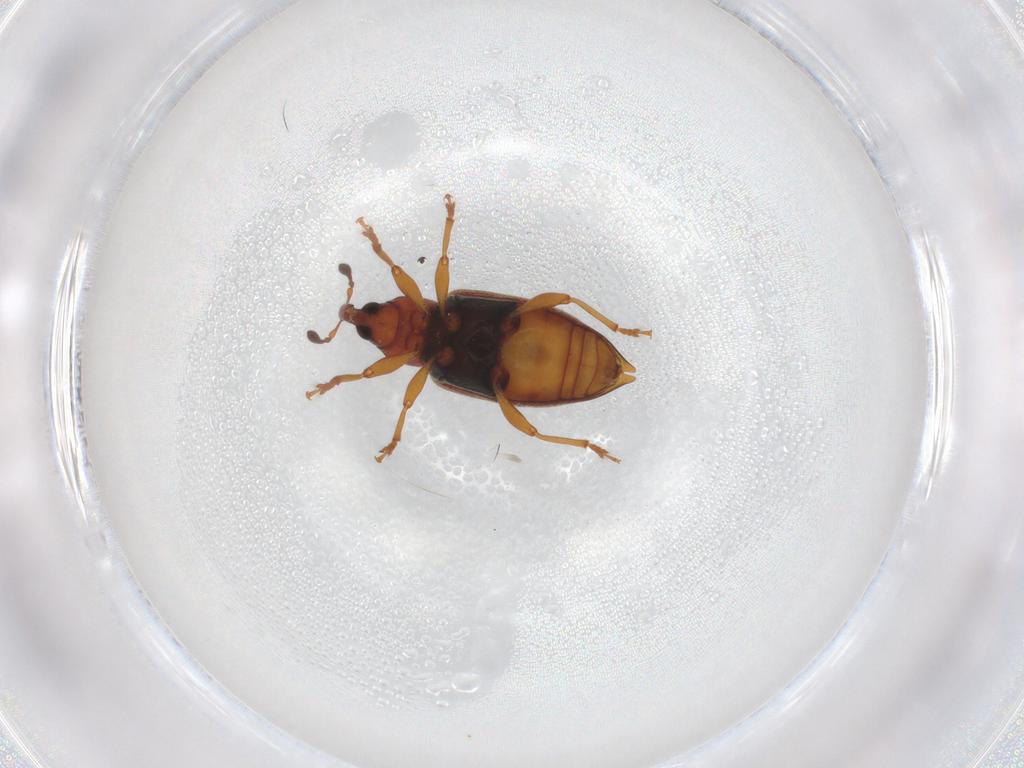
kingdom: Animalia
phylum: Arthropoda
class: Insecta
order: Coleoptera
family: Curculionidae
